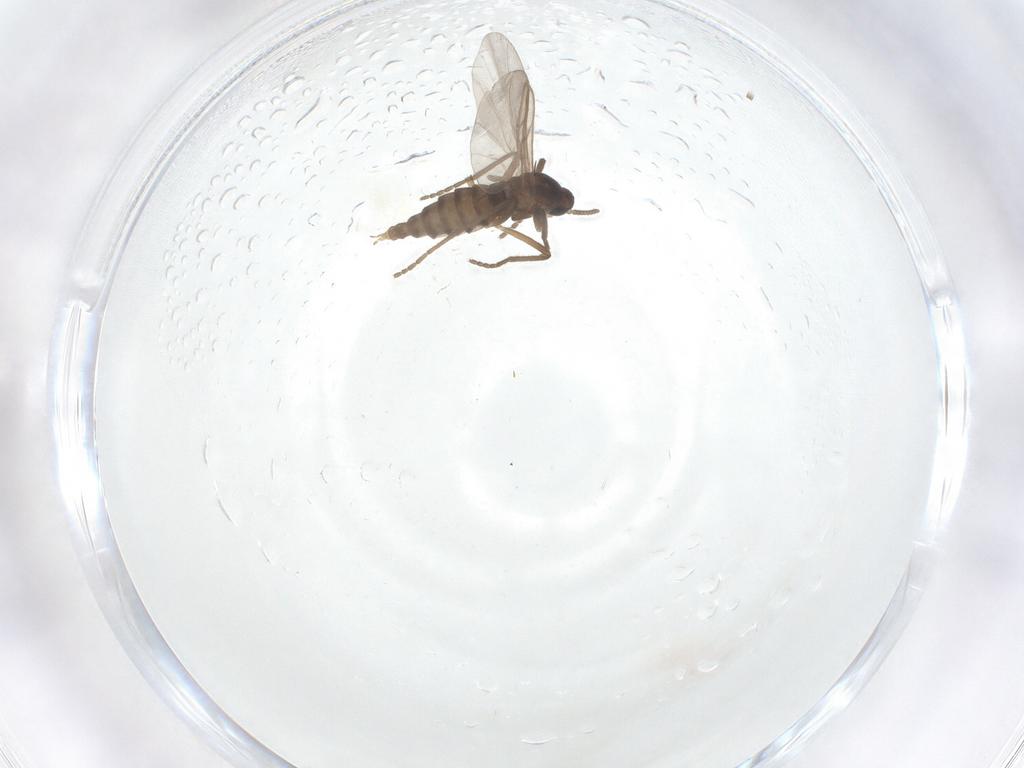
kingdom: Animalia
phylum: Arthropoda
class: Insecta
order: Diptera
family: Cecidomyiidae
